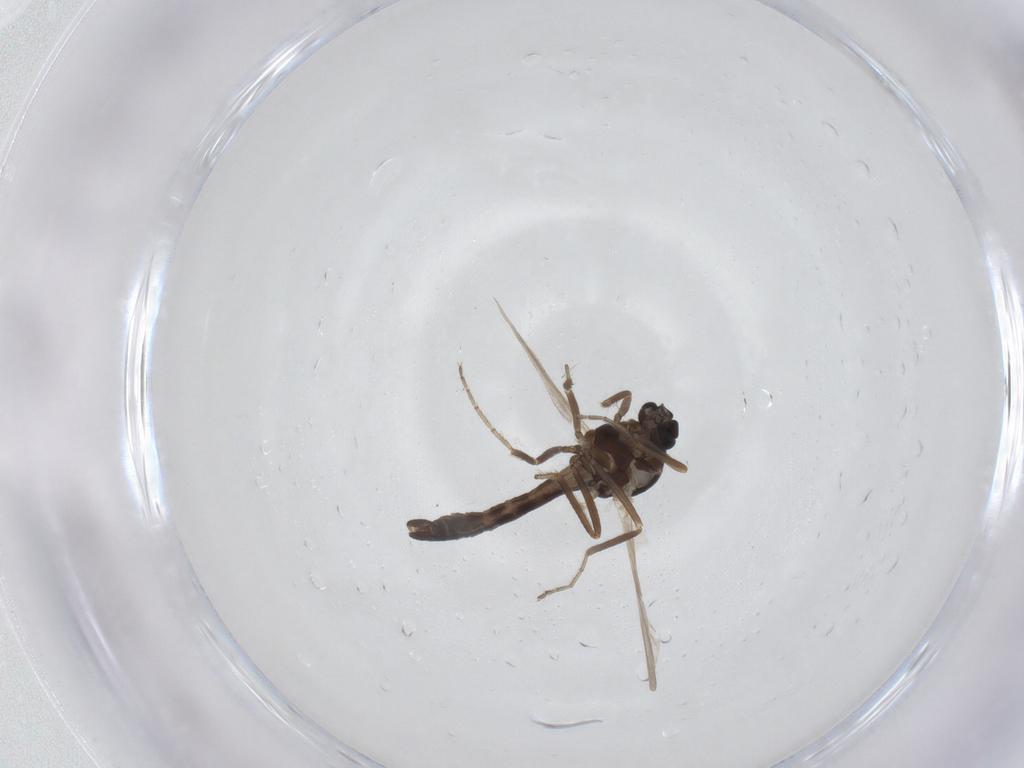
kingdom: Animalia
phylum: Arthropoda
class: Insecta
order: Diptera
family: Ceratopogonidae
